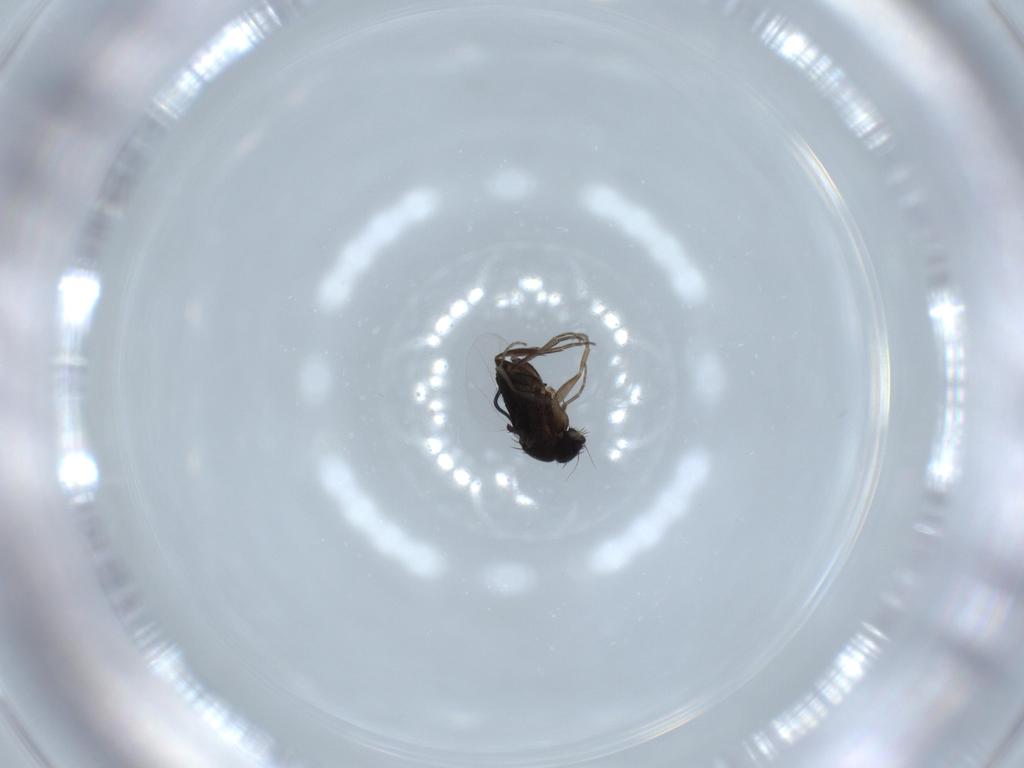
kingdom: Animalia
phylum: Arthropoda
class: Insecta
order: Diptera
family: Phoridae
